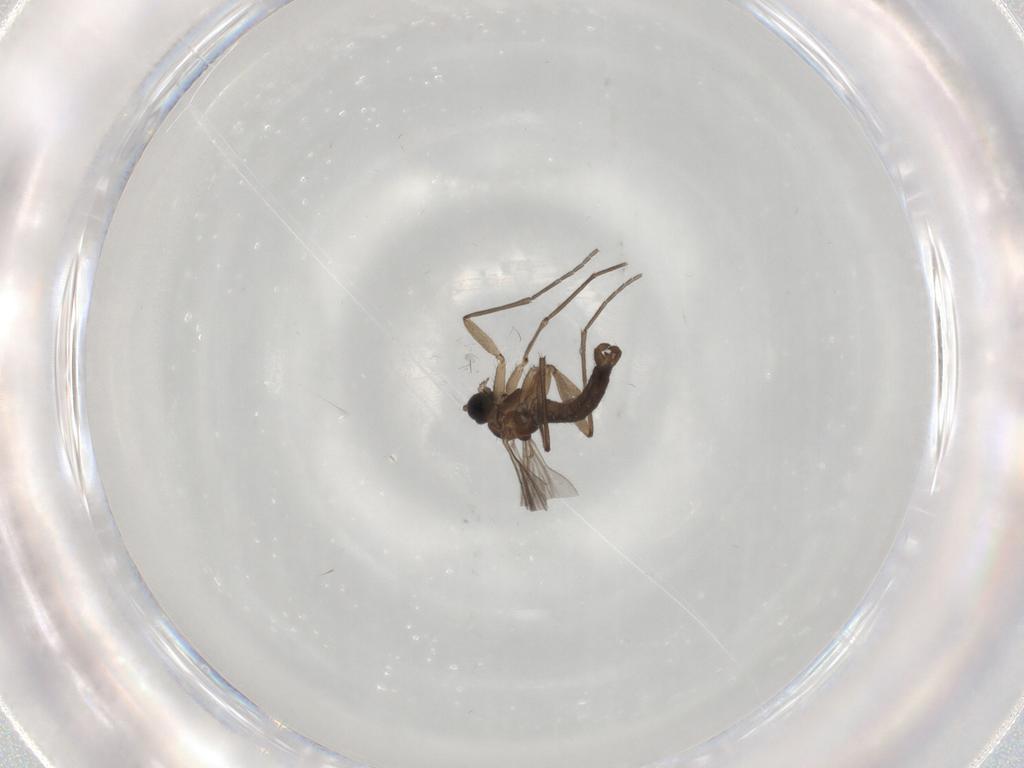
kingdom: Animalia
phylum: Arthropoda
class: Insecta
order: Diptera
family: Sciaridae
